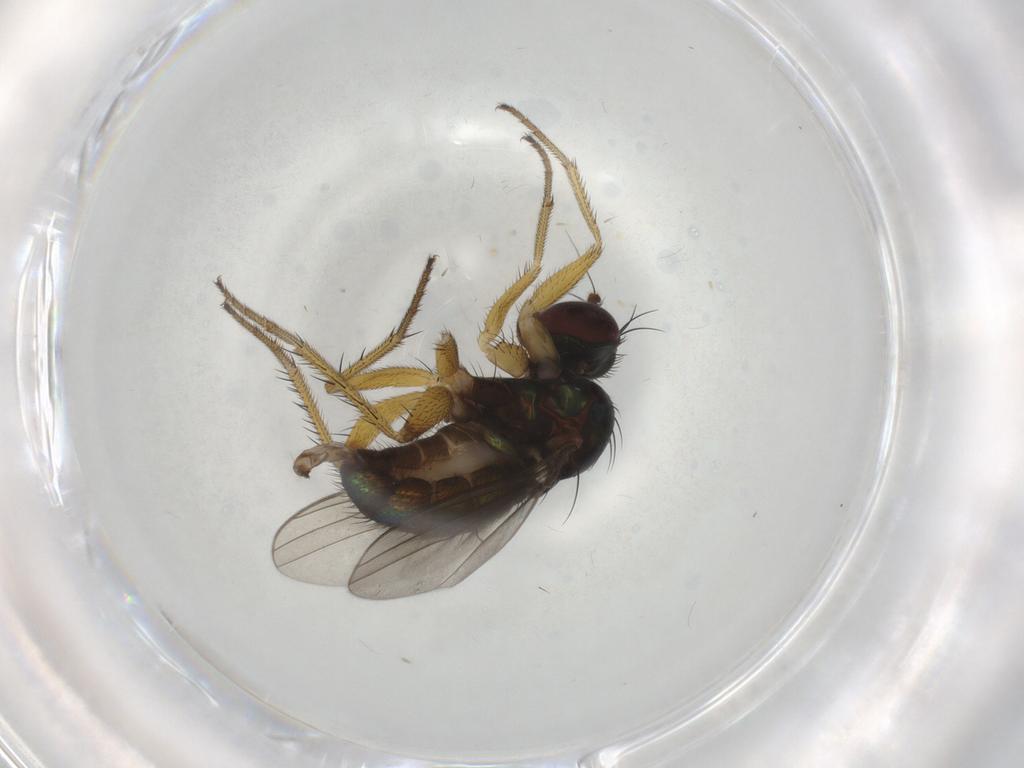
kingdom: Animalia
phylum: Arthropoda
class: Insecta
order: Diptera
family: Dolichopodidae
